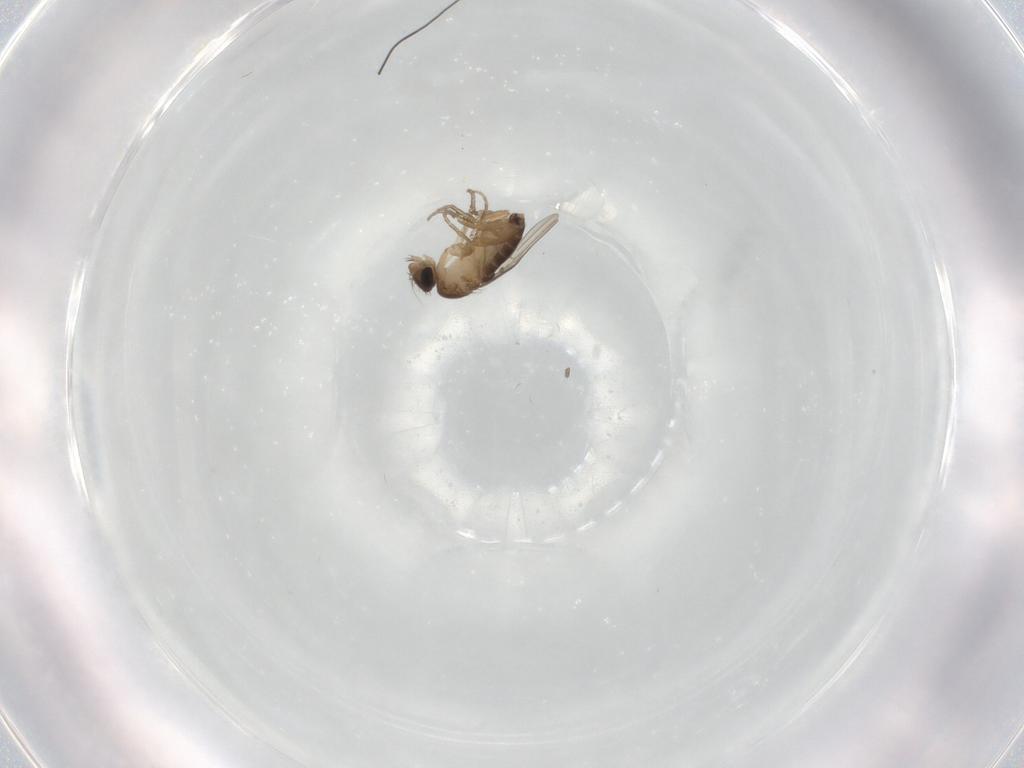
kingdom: Animalia
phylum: Arthropoda
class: Insecta
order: Diptera
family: Phoridae
